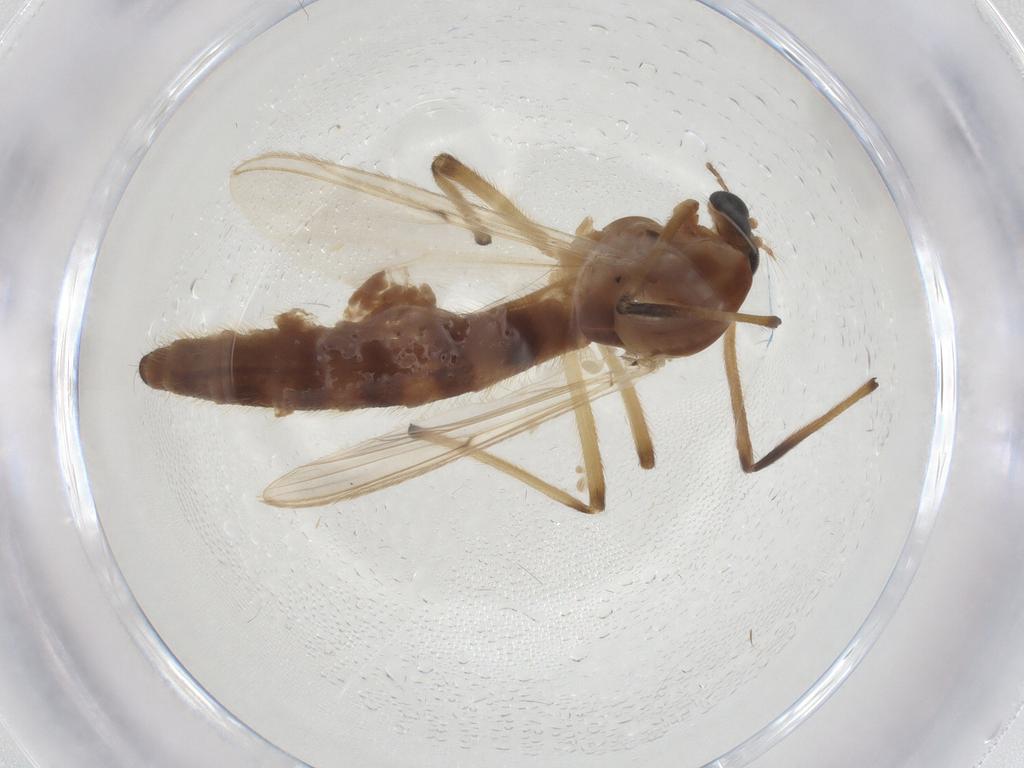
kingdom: Animalia
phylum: Arthropoda
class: Insecta
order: Diptera
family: Chironomidae
